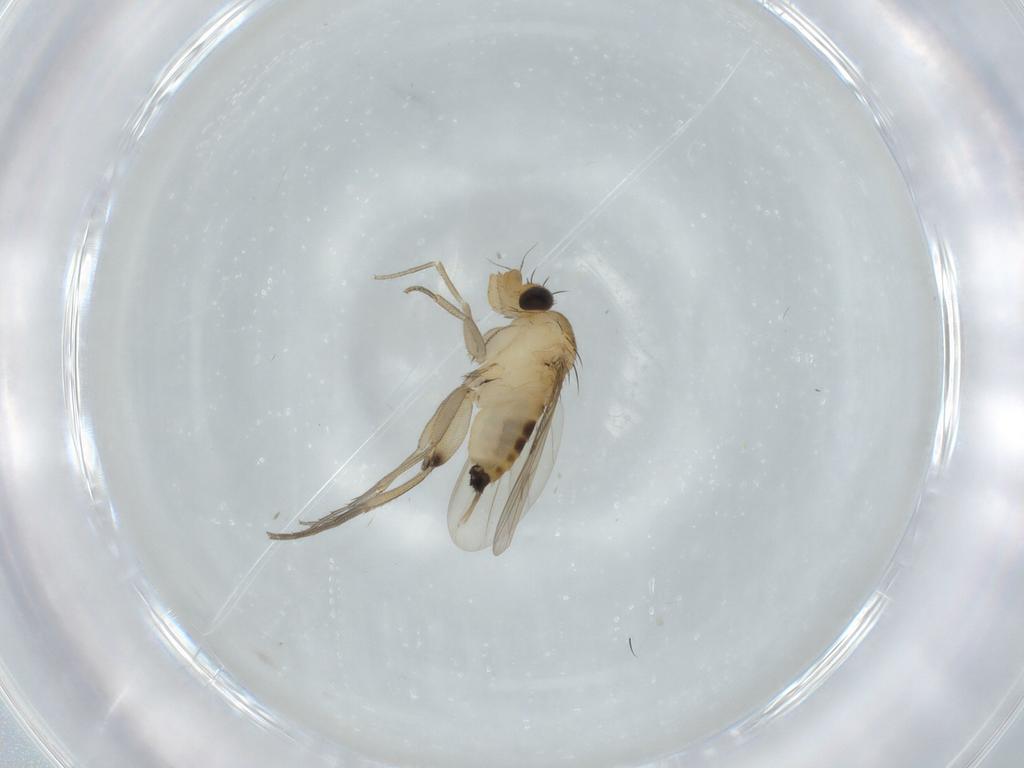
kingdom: Animalia
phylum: Arthropoda
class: Insecta
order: Diptera
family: Phoridae
